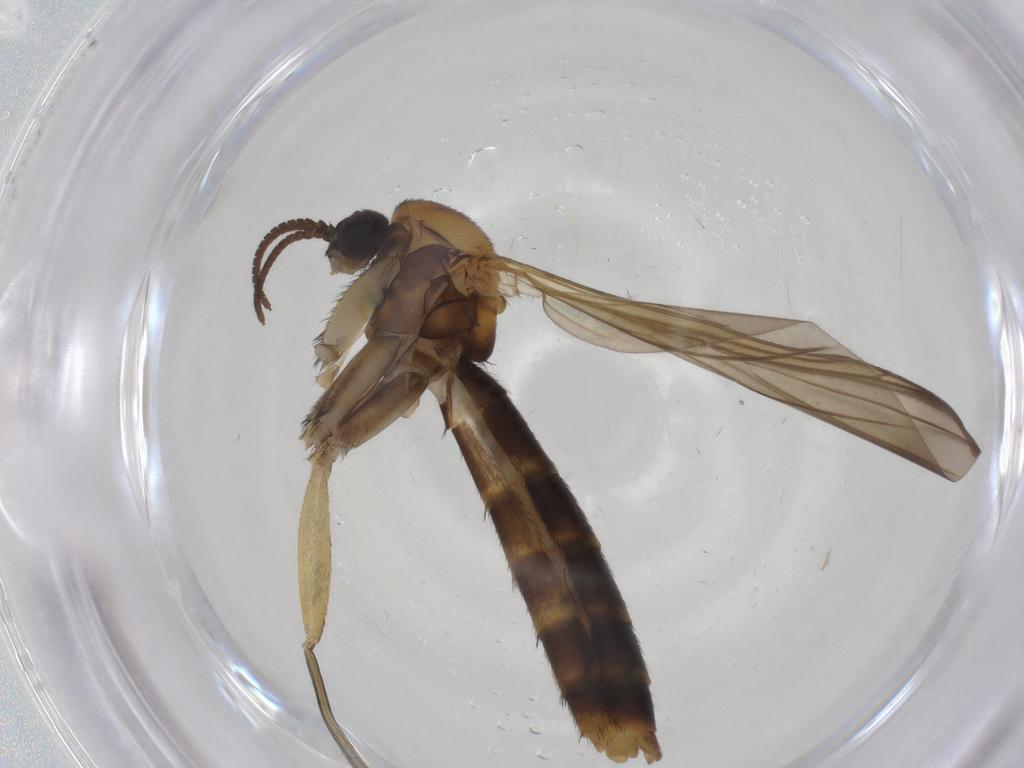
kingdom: Animalia
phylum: Arthropoda
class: Insecta
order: Diptera
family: Keroplatidae
